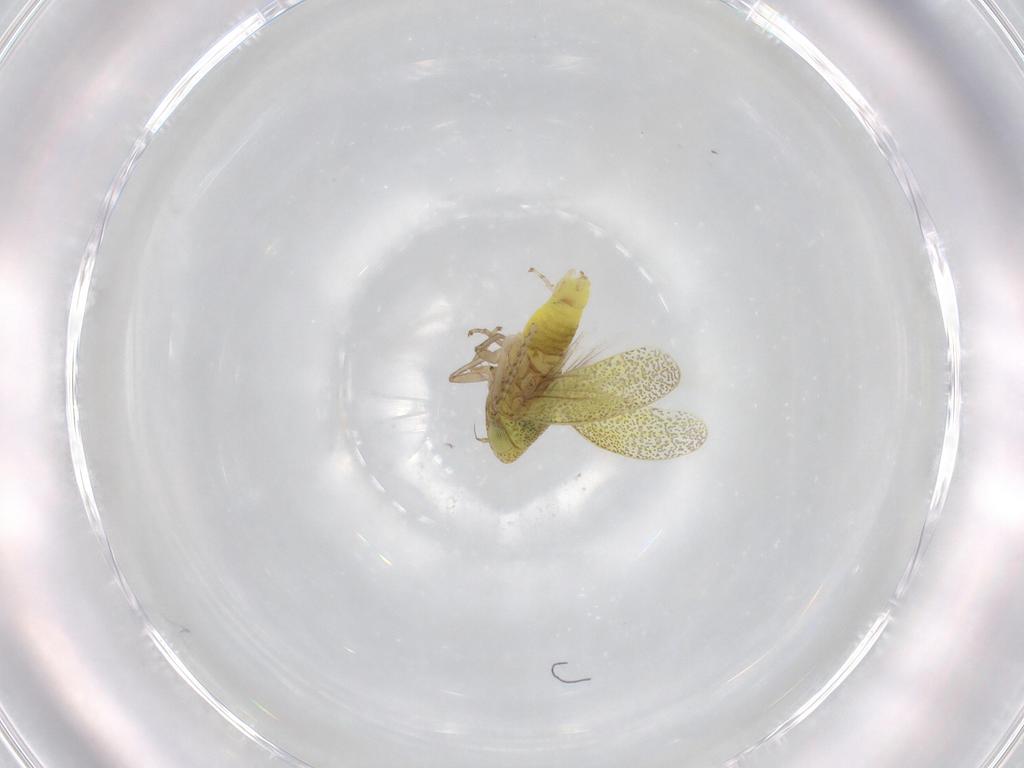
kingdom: Animalia
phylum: Arthropoda
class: Insecta
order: Hemiptera
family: Cicadellidae
